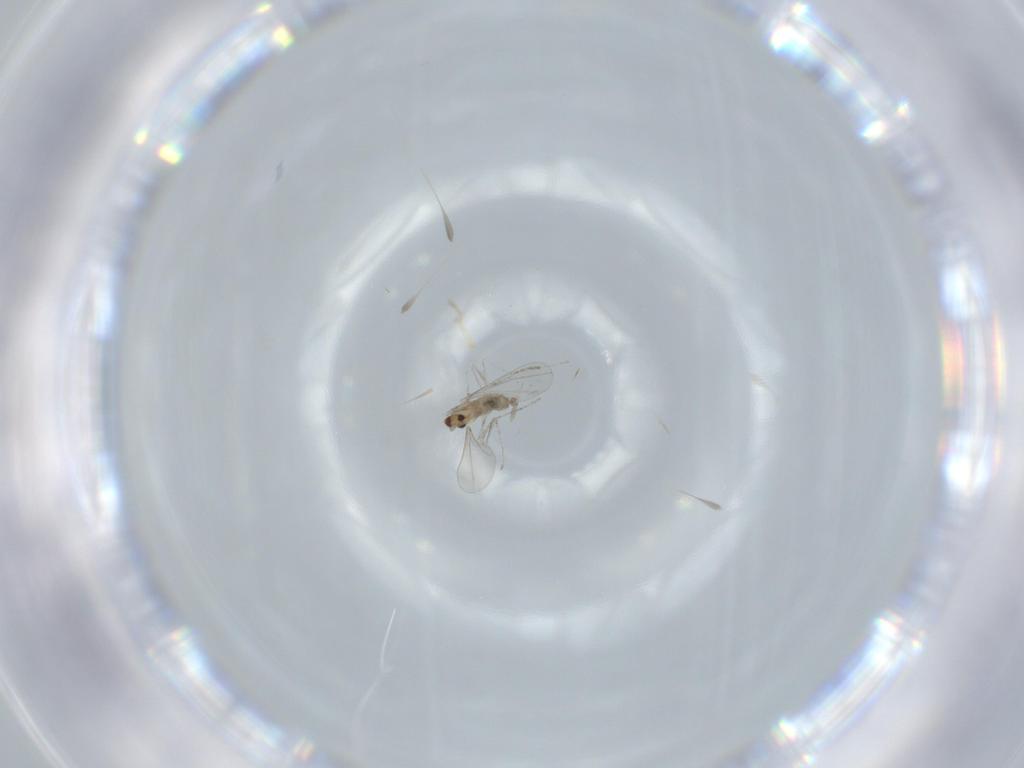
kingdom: Animalia
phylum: Arthropoda
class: Insecta
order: Diptera
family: Cecidomyiidae
